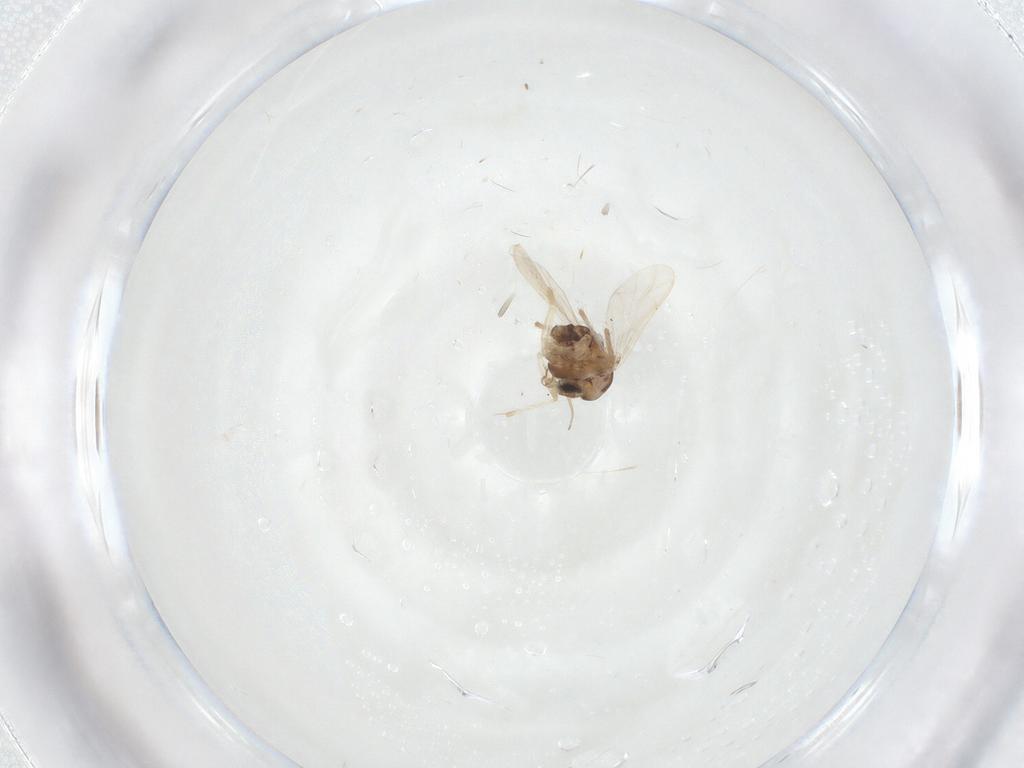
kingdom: Animalia
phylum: Arthropoda
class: Insecta
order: Diptera
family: Chironomidae
